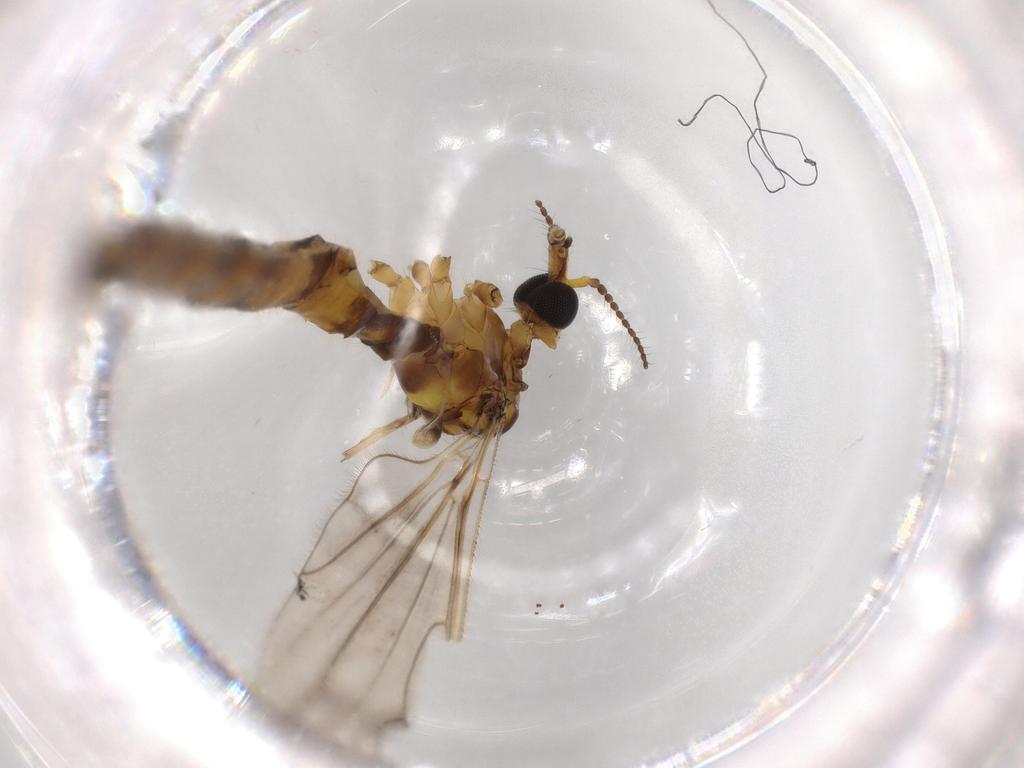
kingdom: Animalia
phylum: Arthropoda
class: Insecta
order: Diptera
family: Limoniidae
